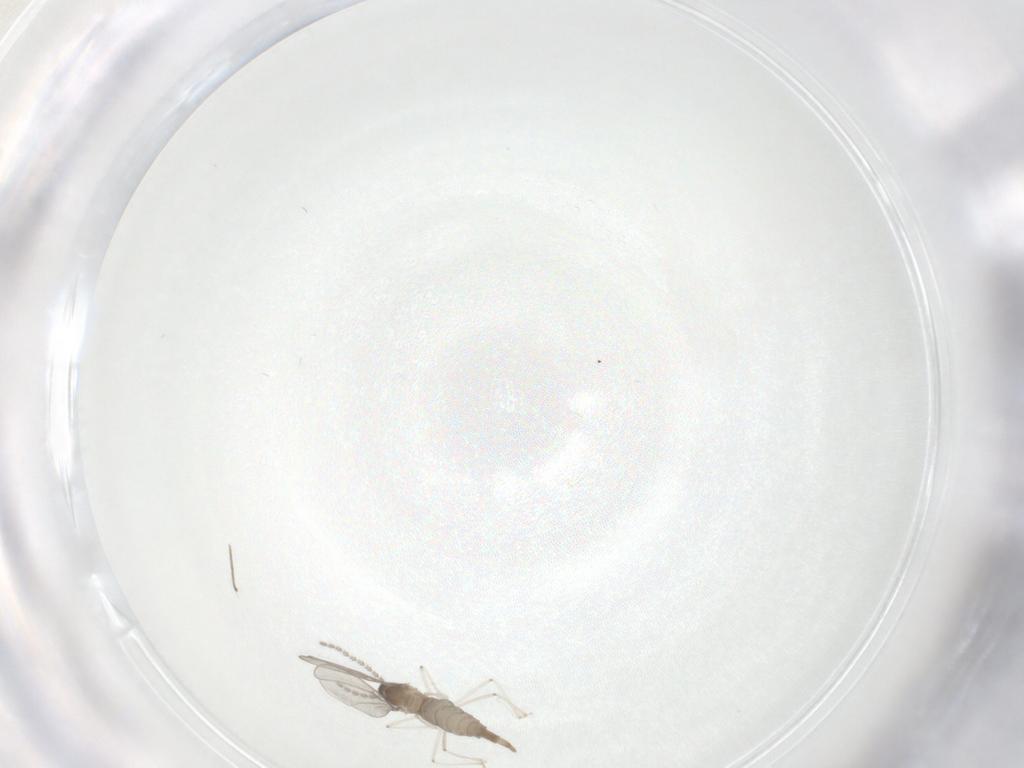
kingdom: Animalia
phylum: Arthropoda
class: Insecta
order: Diptera
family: Chironomidae
